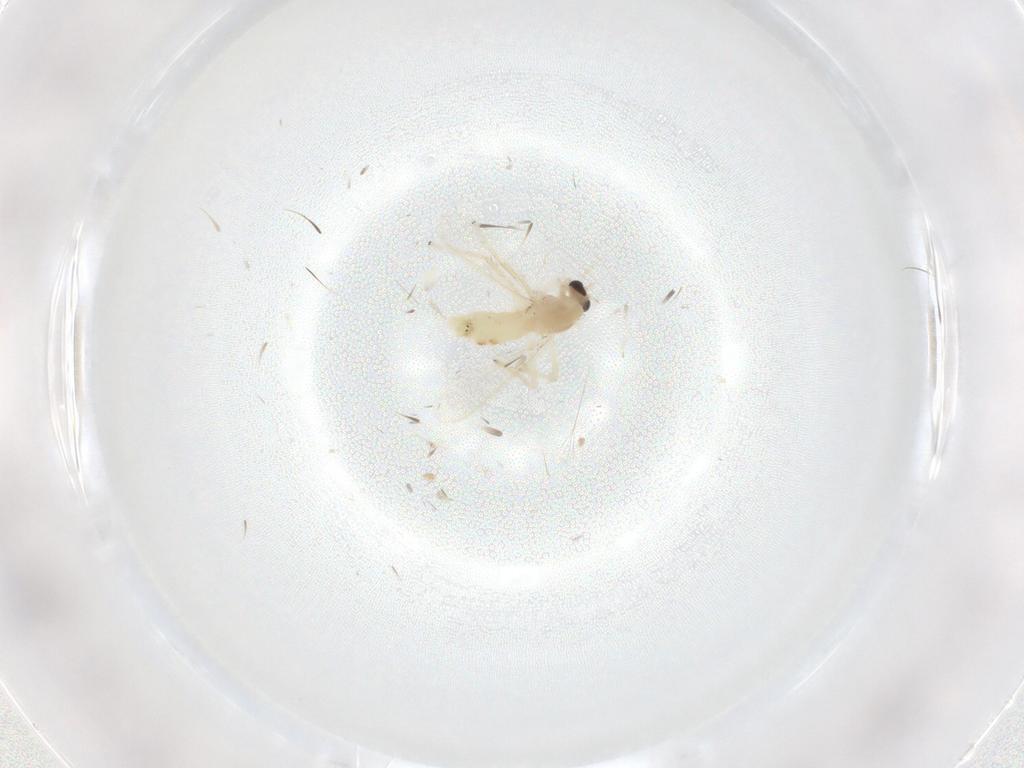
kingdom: Animalia
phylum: Arthropoda
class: Insecta
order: Diptera
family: Chironomidae
